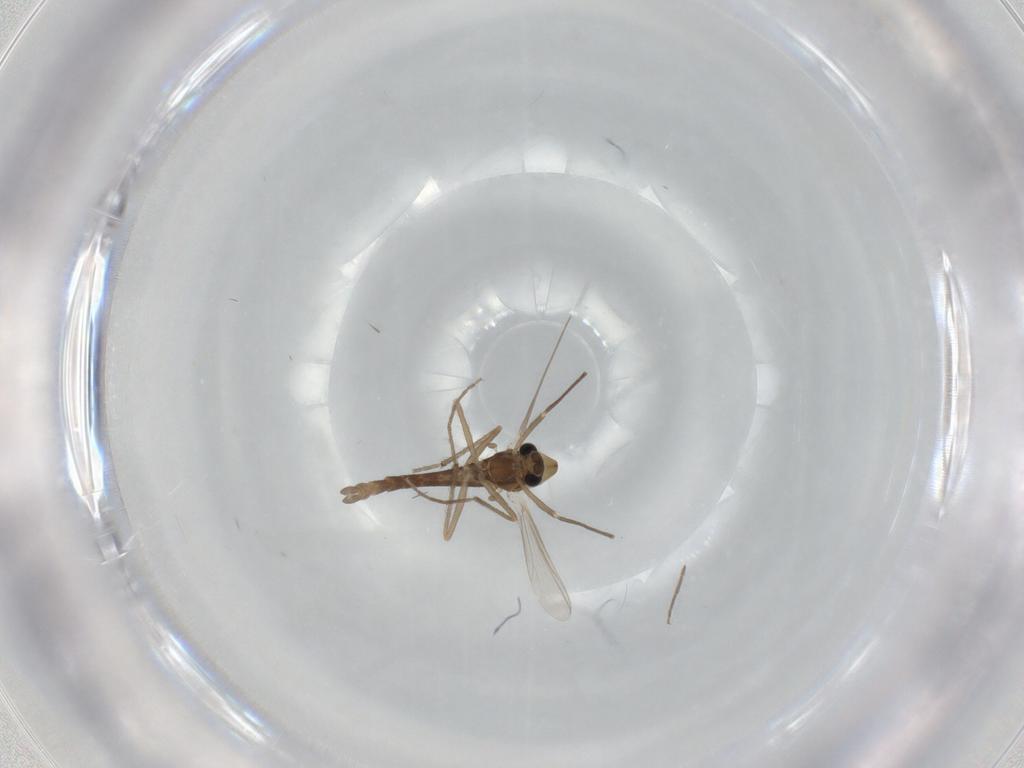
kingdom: Animalia
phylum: Arthropoda
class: Insecta
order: Diptera
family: Chironomidae
